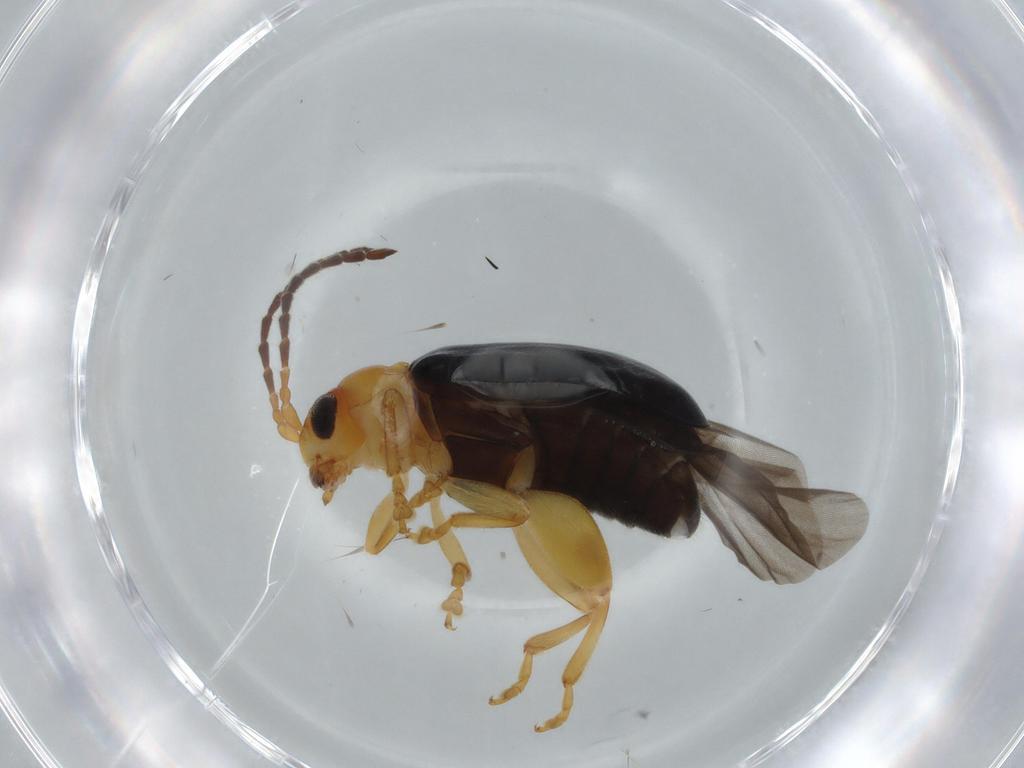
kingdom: Animalia
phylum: Arthropoda
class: Insecta
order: Coleoptera
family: Chrysomelidae
